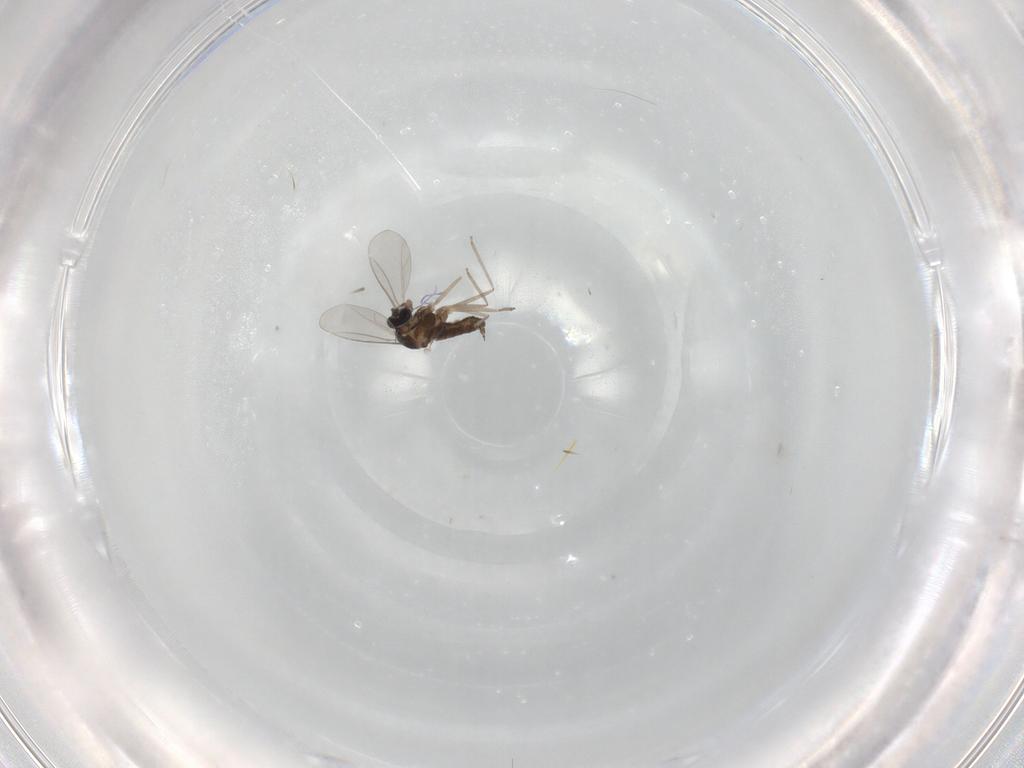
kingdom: Animalia
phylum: Arthropoda
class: Insecta
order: Diptera
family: Cecidomyiidae
